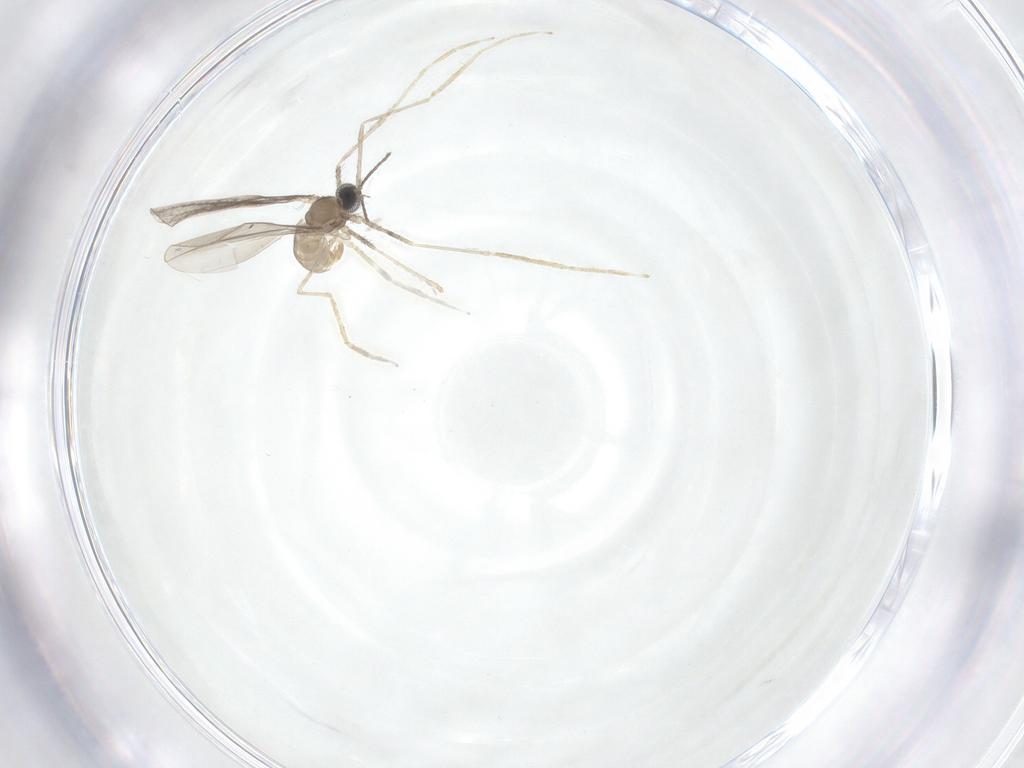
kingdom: Animalia
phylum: Arthropoda
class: Insecta
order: Diptera
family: Cecidomyiidae
